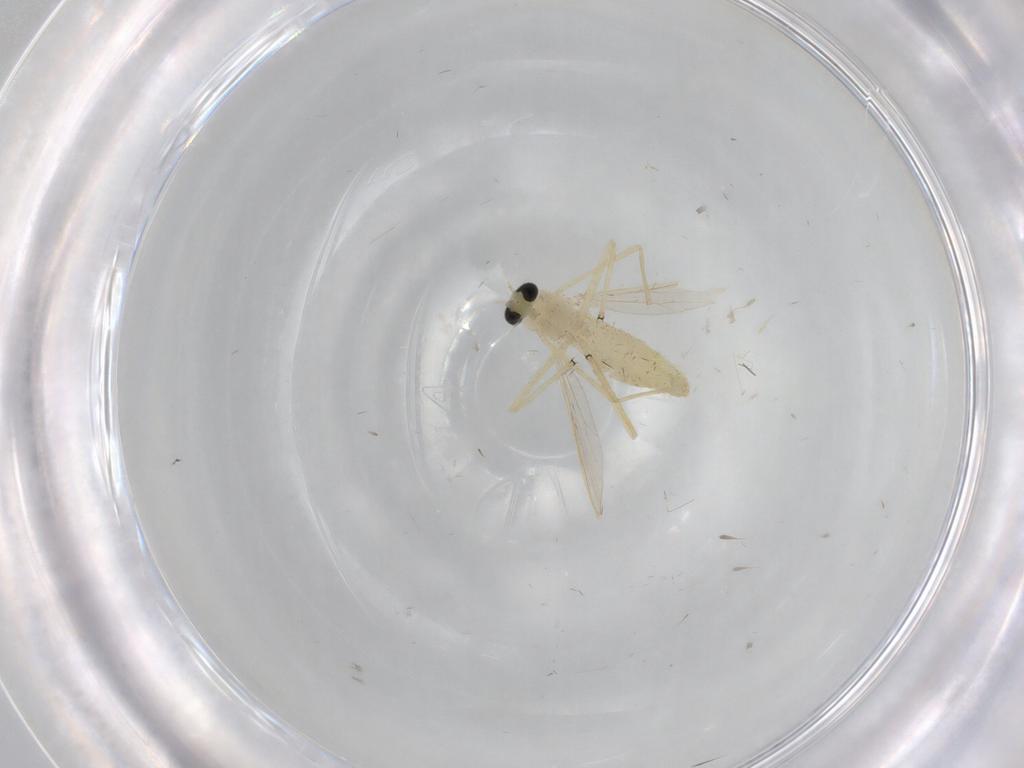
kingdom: Animalia
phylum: Arthropoda
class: Insecta
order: Diptera
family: Chironomidae
